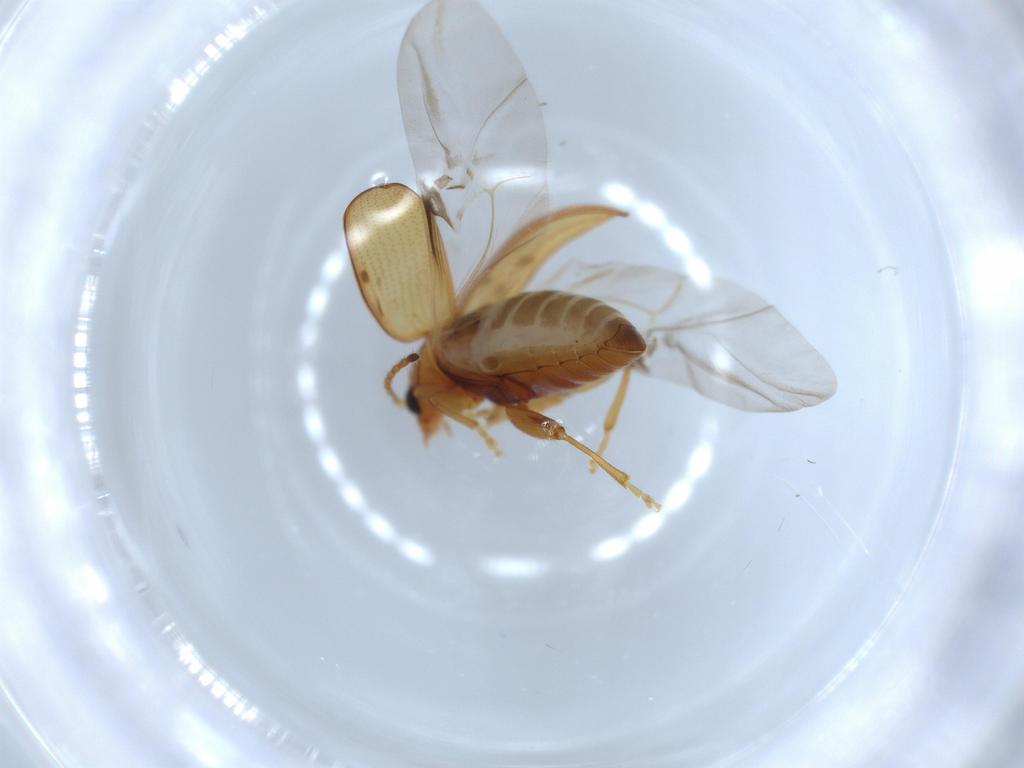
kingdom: Animalia
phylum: Arthropoda
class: Insecta
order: Coleoptera
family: Chrysomelidae
